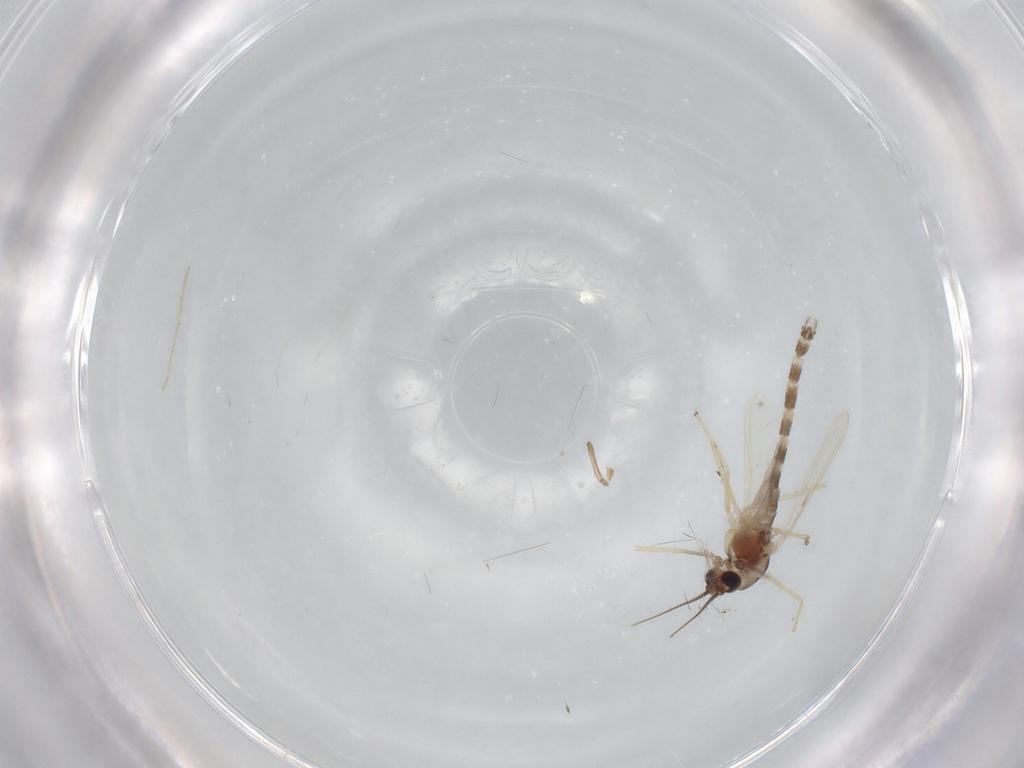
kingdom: Animalia
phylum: Arthropoda
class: Insecta
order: Diptera
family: Chironomidae
